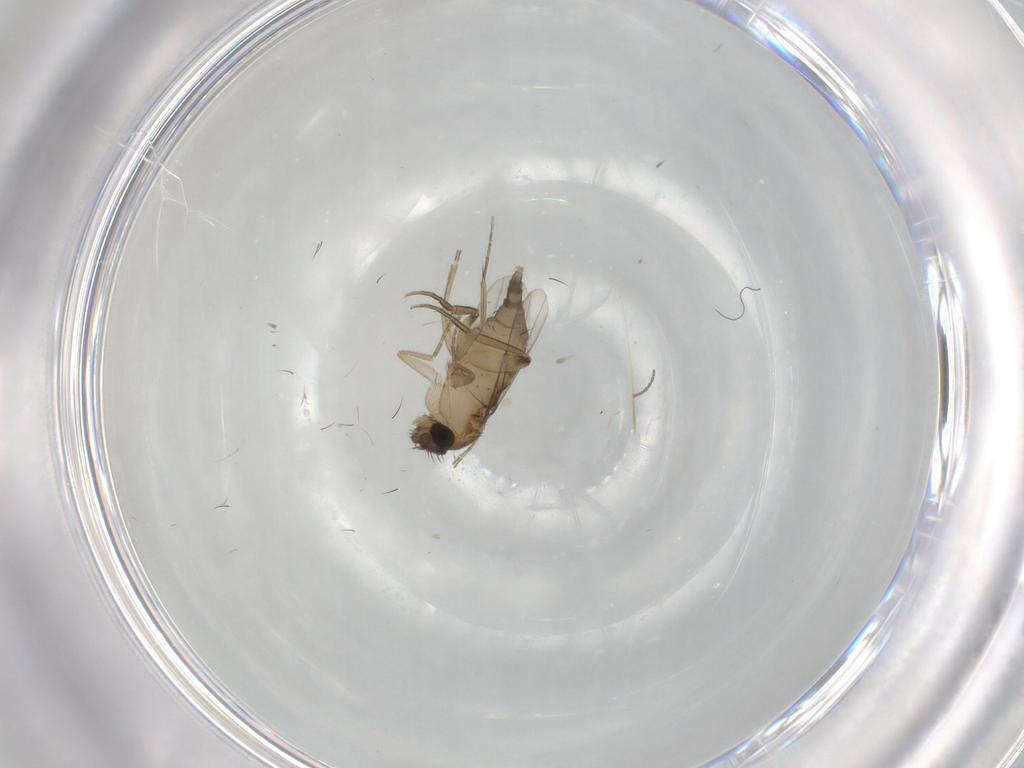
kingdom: Animalia
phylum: Arthropoda
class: Insecta
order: Diptera
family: Phoridae
